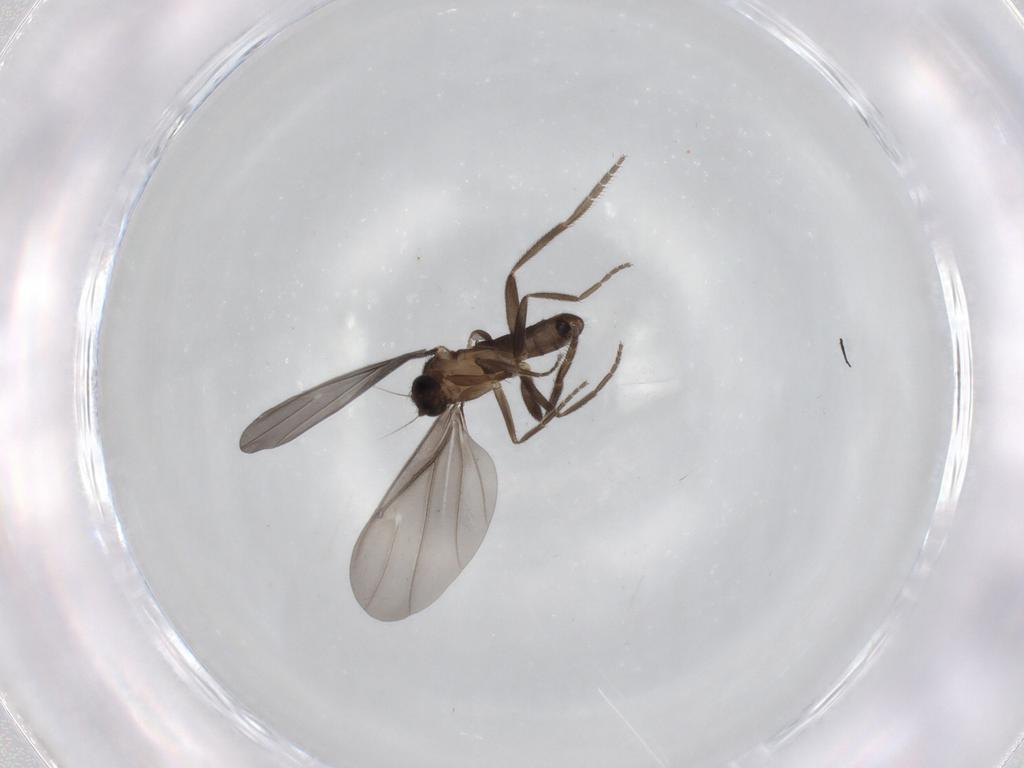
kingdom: Animalia
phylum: Arthropoda
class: Insecta
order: Diptera
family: Phoridae
